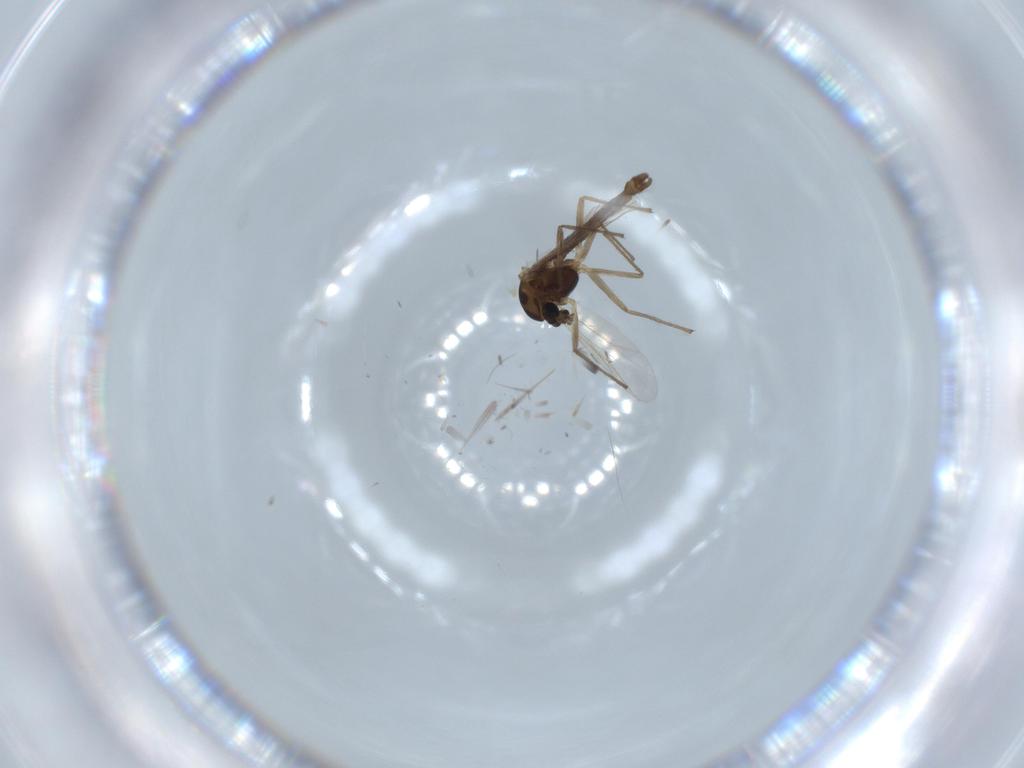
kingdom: Animalia
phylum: Arthropoda
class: Insecta
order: Diptera
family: Chironomidae
